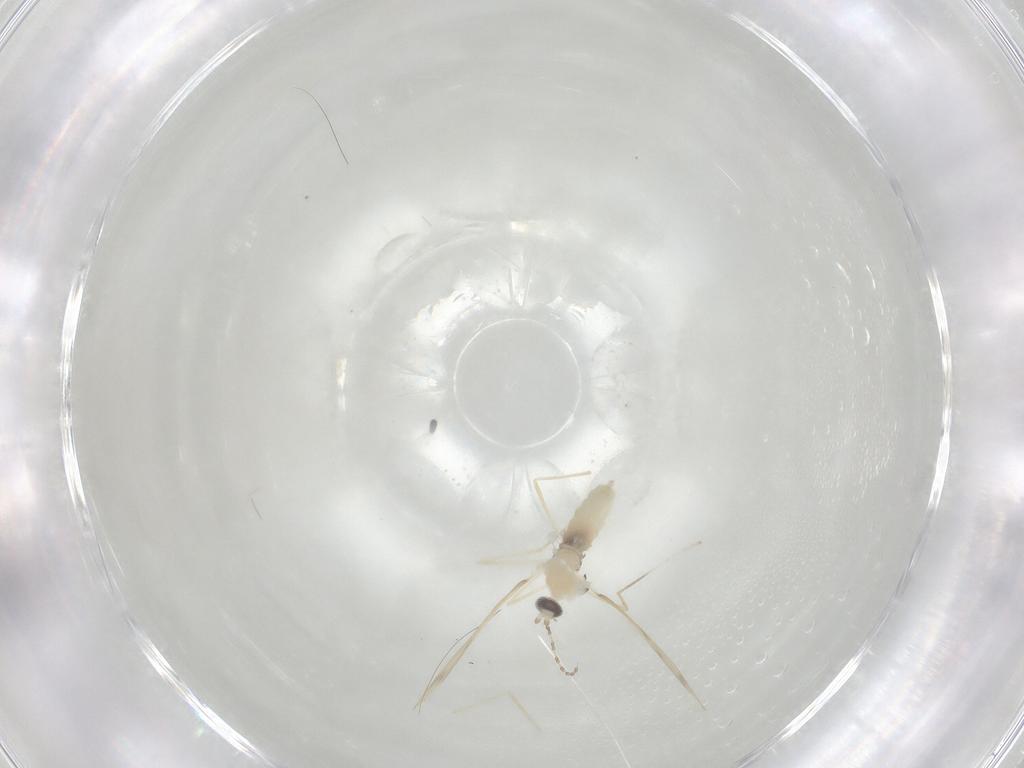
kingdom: Animalia
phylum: Arthropoda
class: Insecta
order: Diptera
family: Cecidomyiidae
